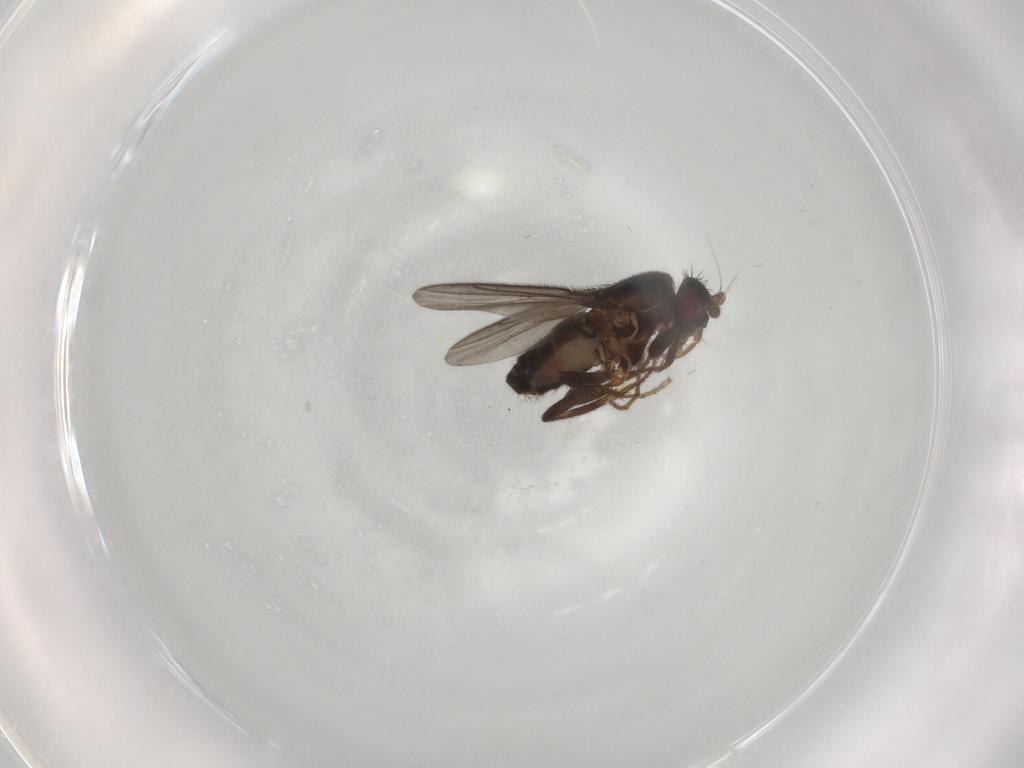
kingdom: Animalia
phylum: Arthropoda
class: Insecta
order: Diptera
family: Sphaeroceridae
